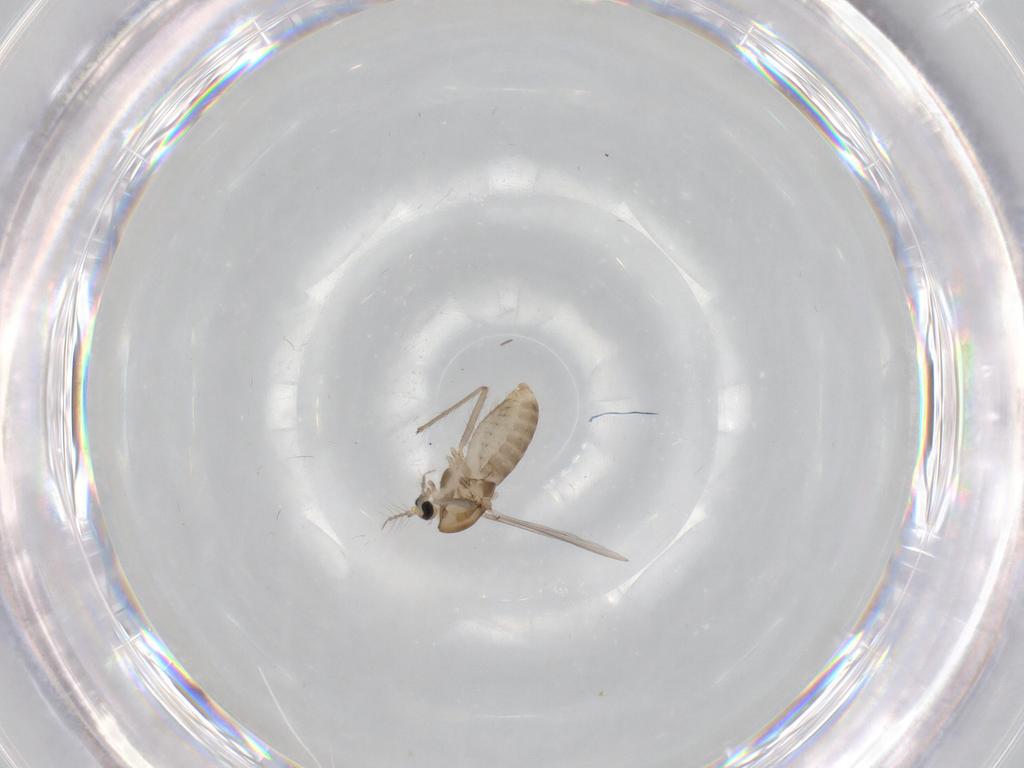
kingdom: Animalia
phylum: Arthropoda
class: Insecta
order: Diptera
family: Chironomidae
